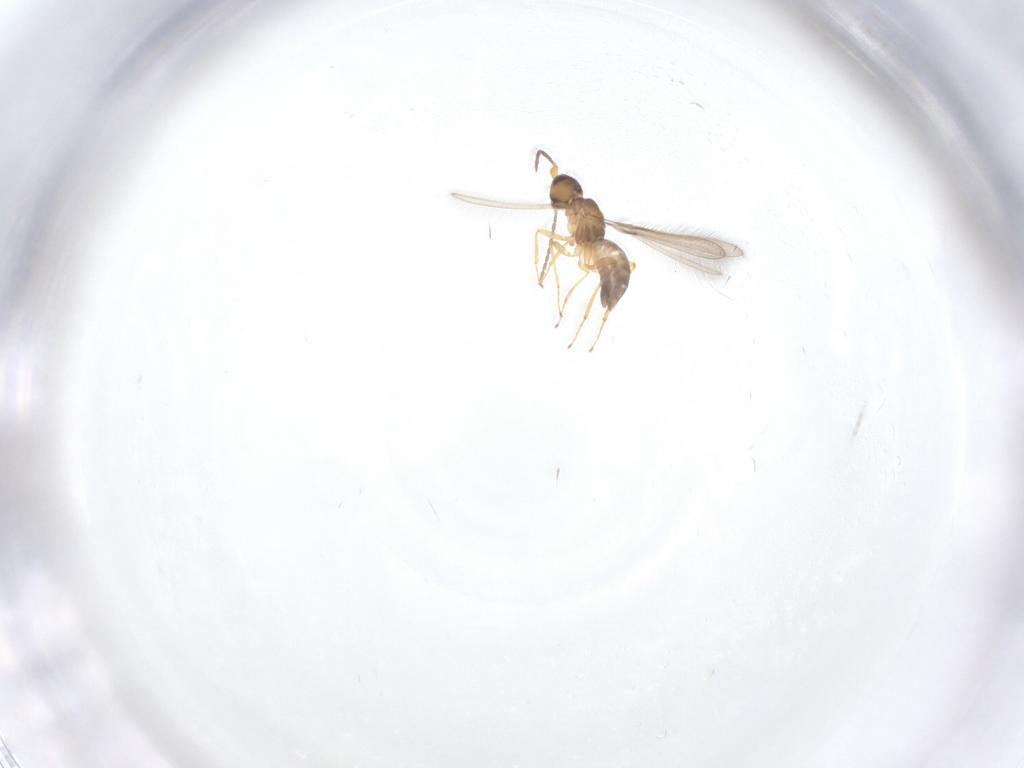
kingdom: Animalia
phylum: Arthropoda
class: Insecta
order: Hymenoptera
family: Mymaridae
